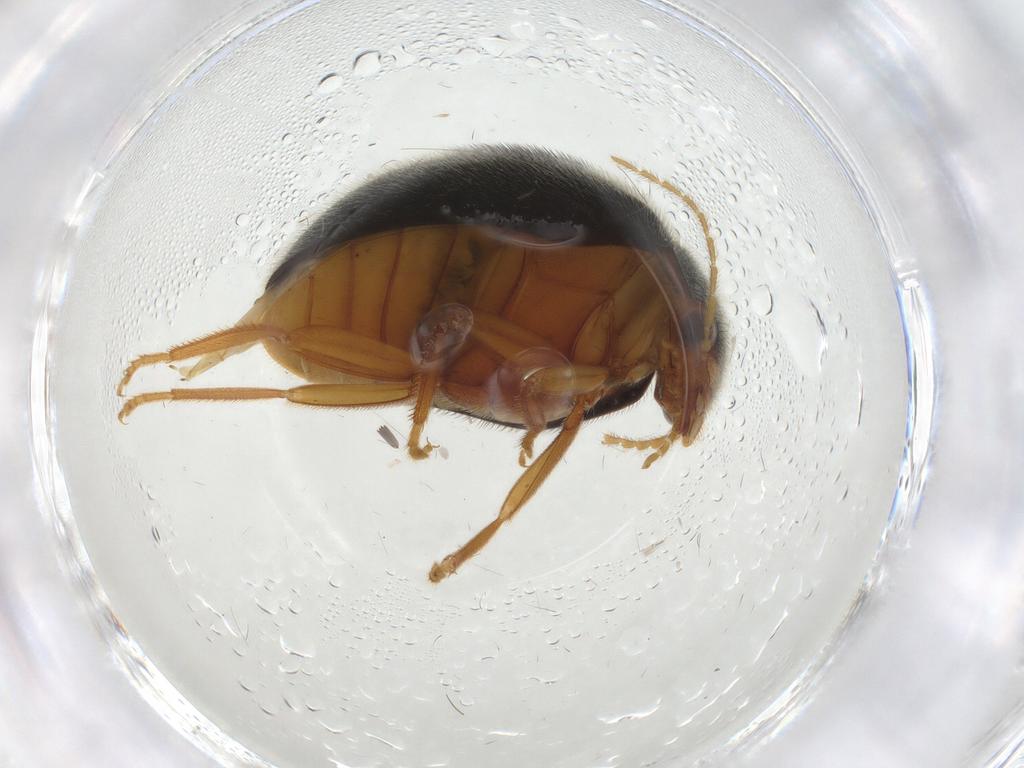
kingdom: Animalia
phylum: Arthropoda
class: Insecta
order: Coleoptera
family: Scirtidae
